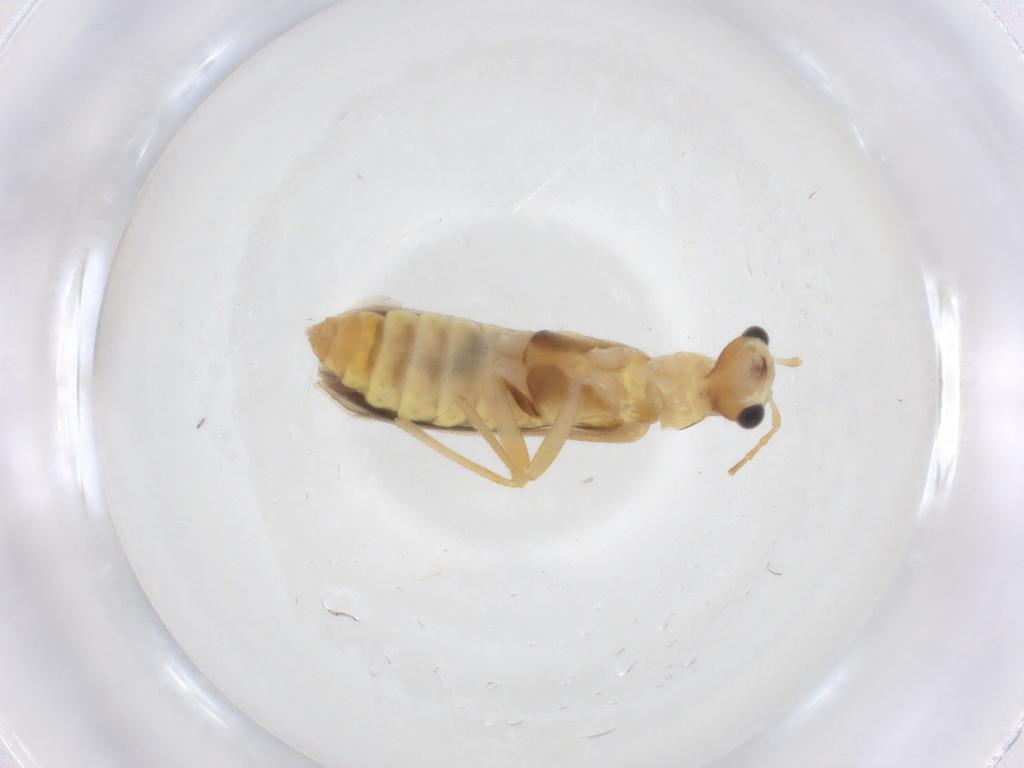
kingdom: Animalia
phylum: Arthropoda
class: Insecta
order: Coleoptera
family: Cantharidae
